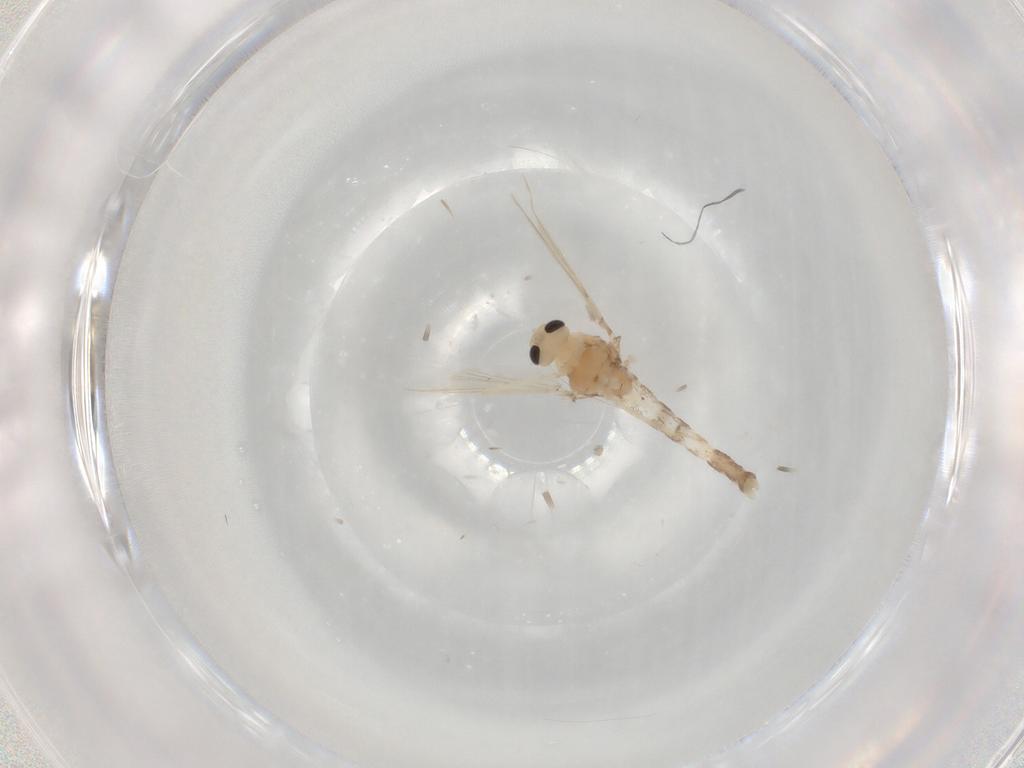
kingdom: Animalia
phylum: Arthropoda
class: Insecta
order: Diptera
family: Chironomidae
